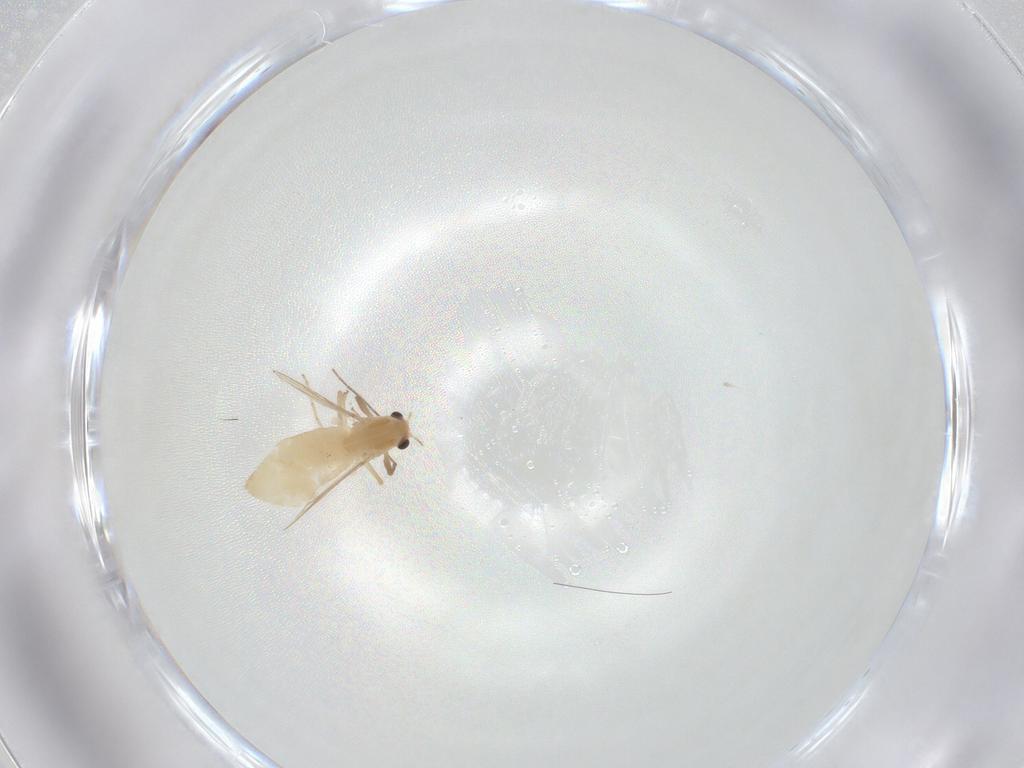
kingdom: Animalia
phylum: Arthropoda
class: Insecta
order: Diptera
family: Chironomidae
